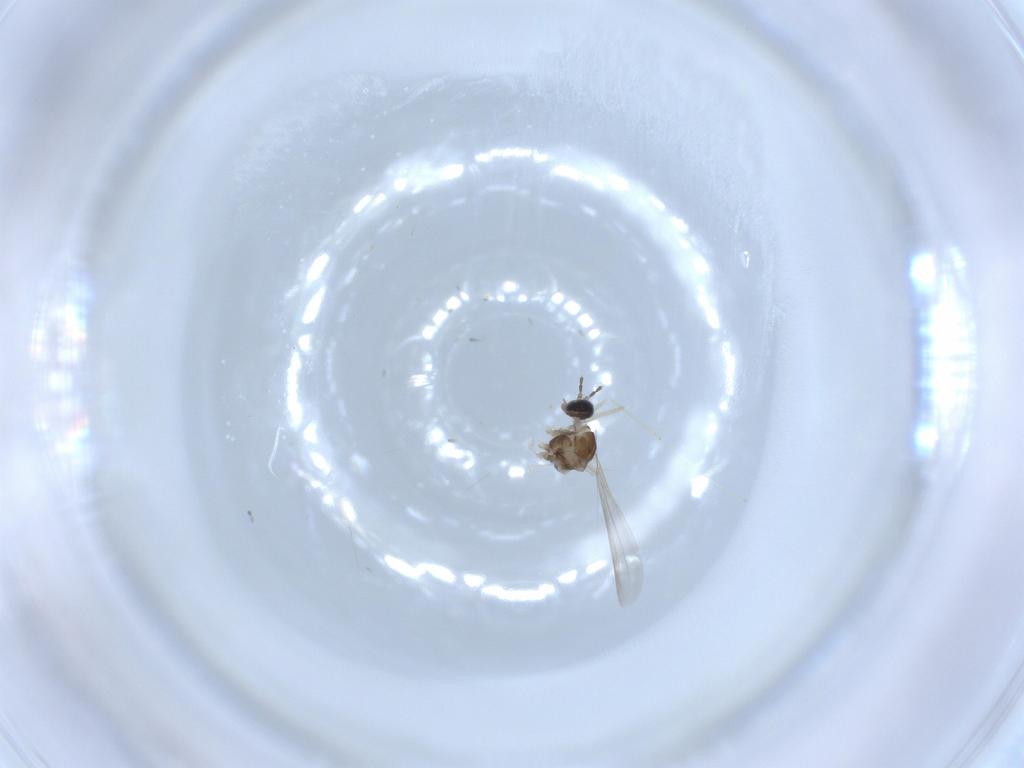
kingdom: Animalia
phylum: Arthropoda
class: Insecta
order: Diptera
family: Cecidomyiidae
